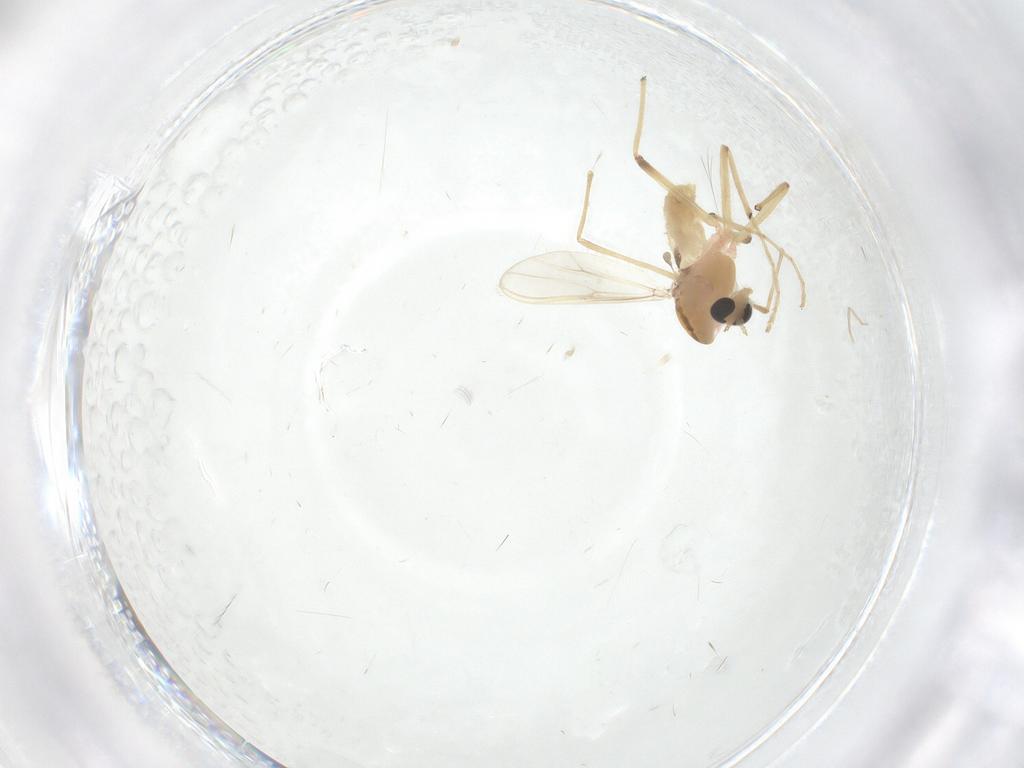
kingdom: Animalia
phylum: Arthropoda
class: Insecta
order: Diptera
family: Chironomidae
